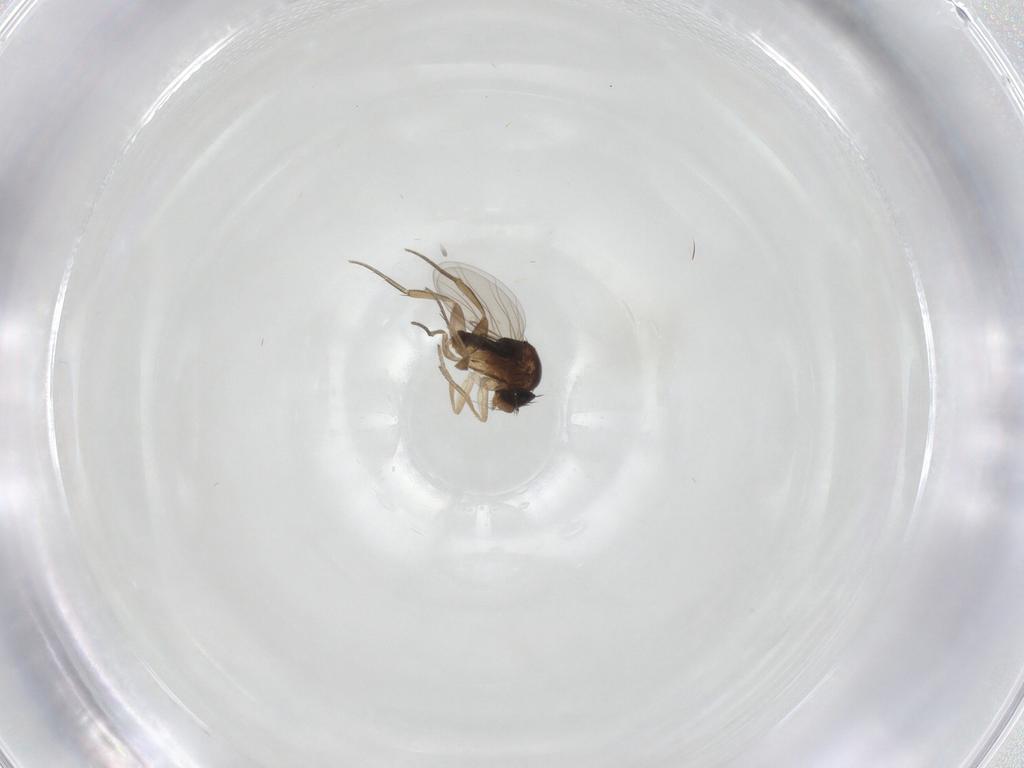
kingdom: Animalia
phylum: Arthropoda
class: Insecta
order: Diptera
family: Phoridae
